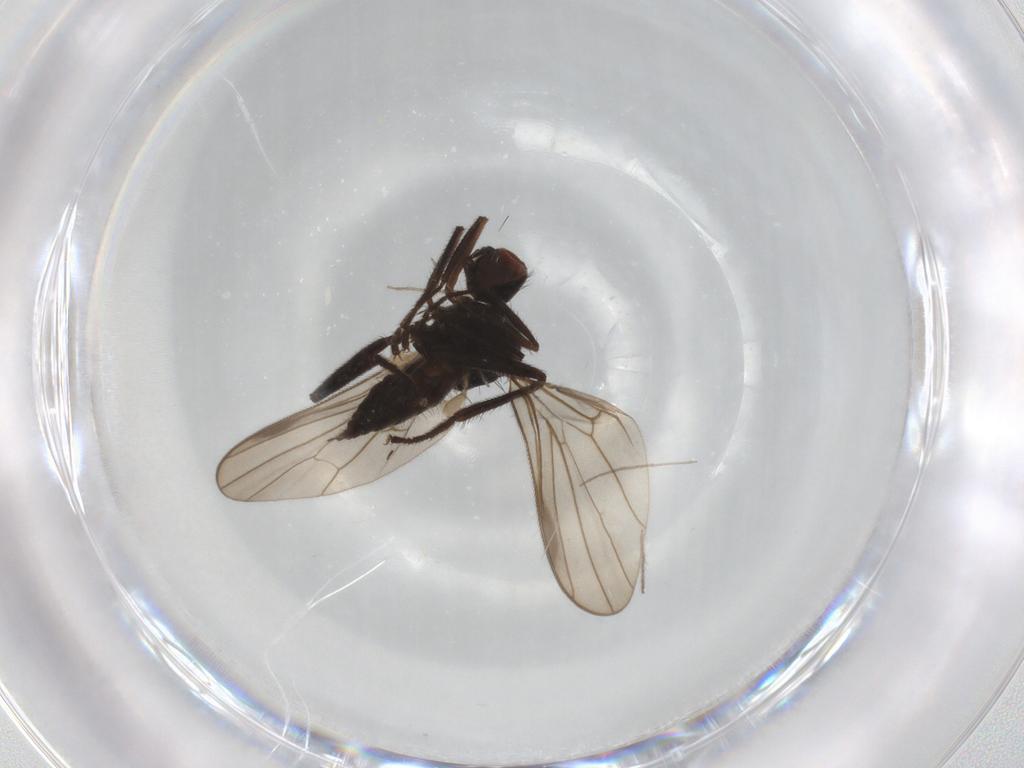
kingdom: Animalia
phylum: Arthropoda
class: Insecta
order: Diptera
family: Hybotidae
